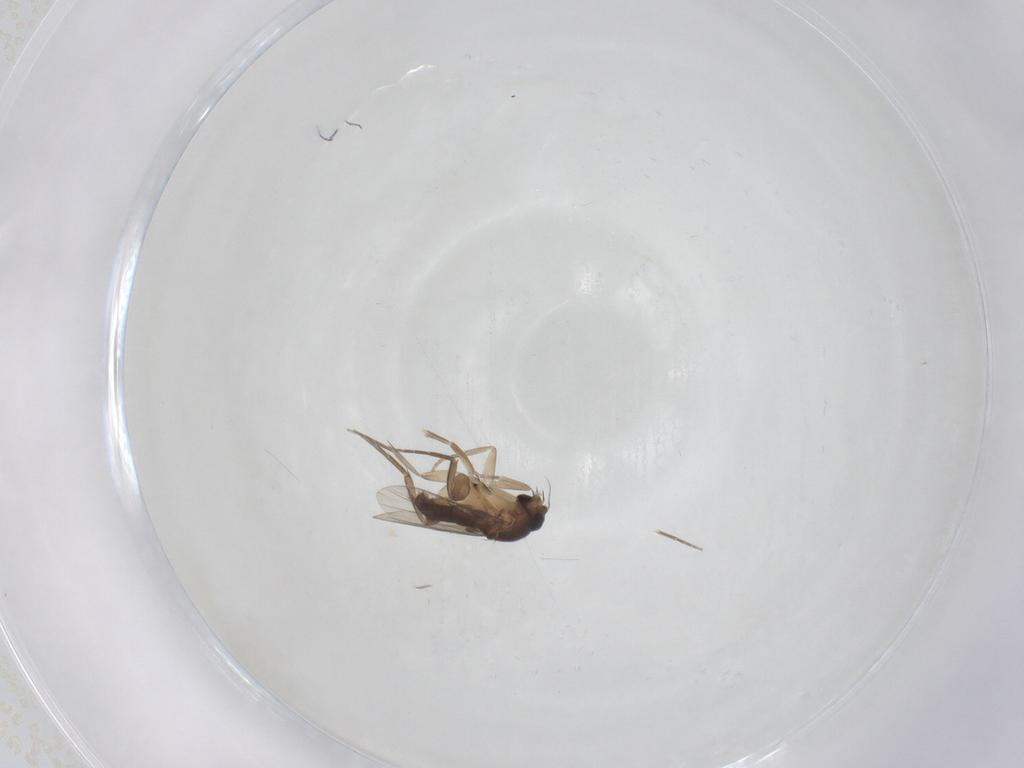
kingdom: Animalia
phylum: Arthropoda
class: Insecta
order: Diptera
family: Phoridae
